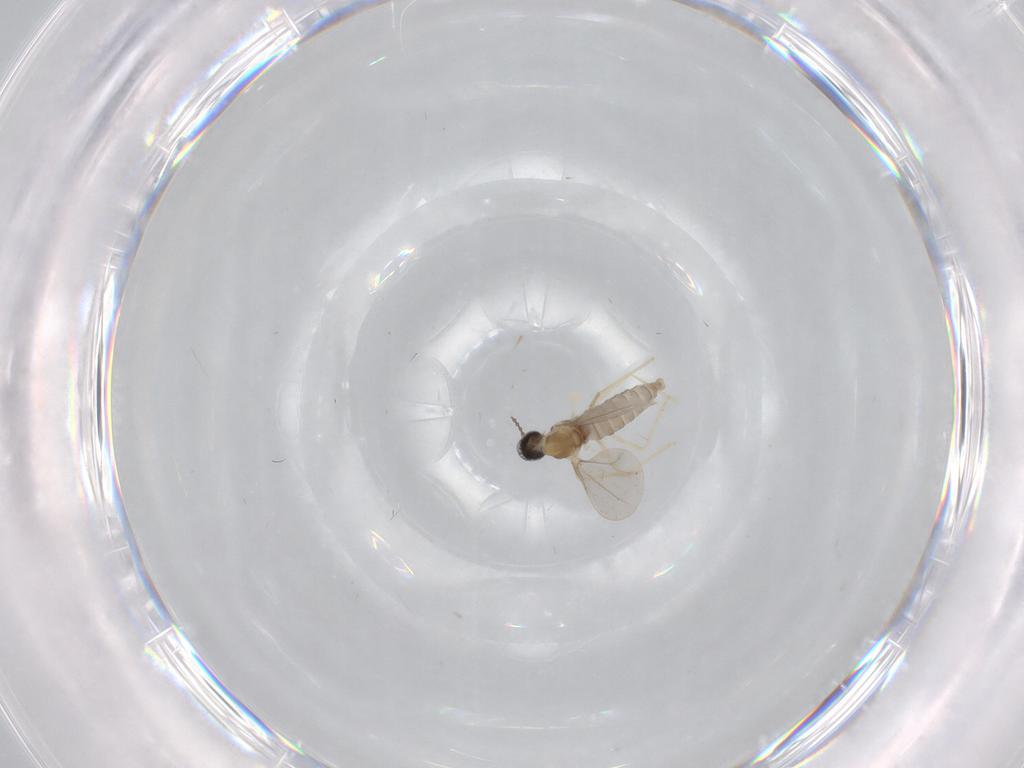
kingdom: Animalia
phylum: Arthropoda
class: Insecta
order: Diptera
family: Cecidomyiidae
